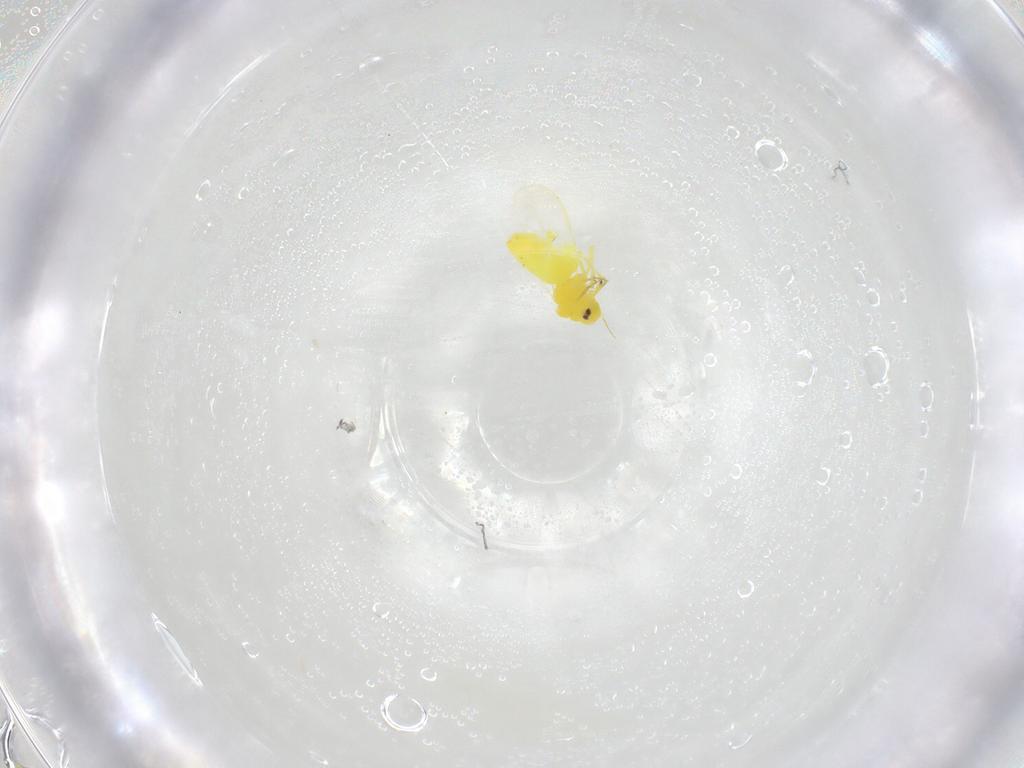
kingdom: Animalia
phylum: Arthropoda
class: Insecta
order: Hemiptera
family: Aleyrodidae
